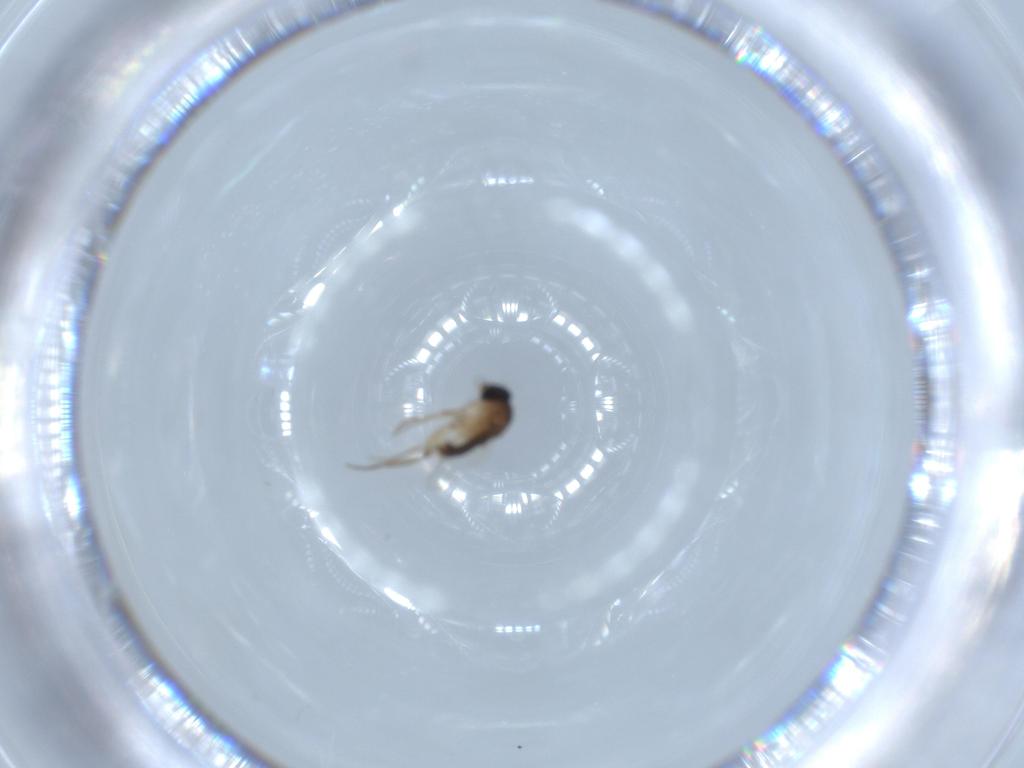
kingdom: Animalia
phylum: Arthropoda
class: Insecta
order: Diptera
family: Phoridae
